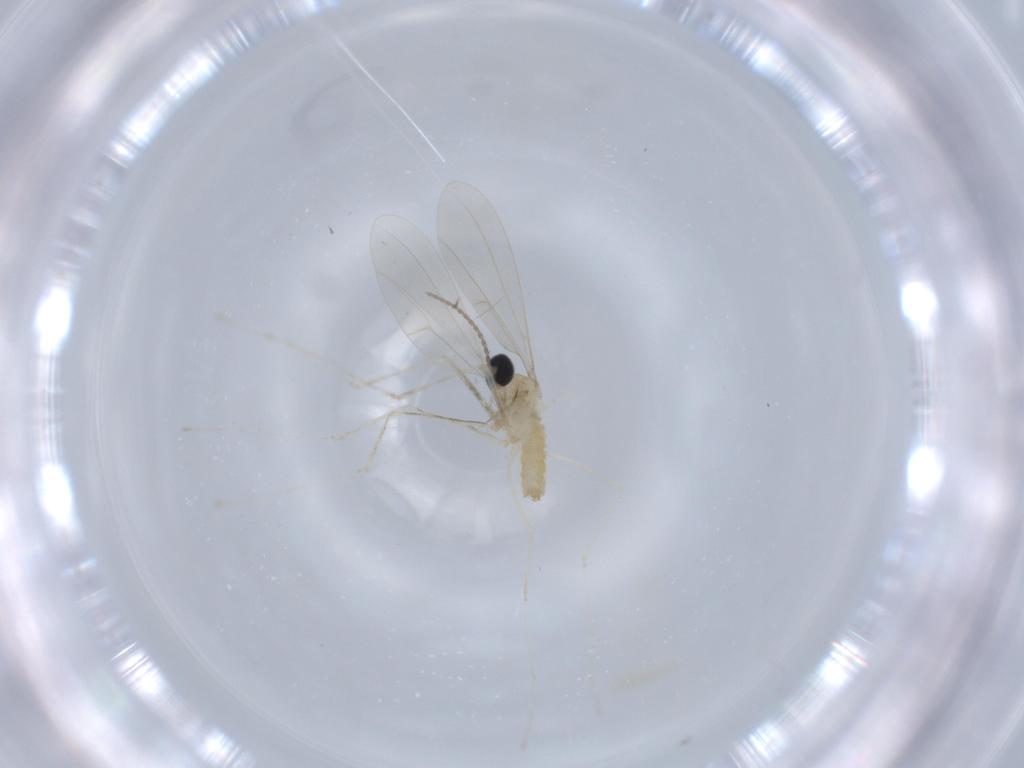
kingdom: Animalia
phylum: Arthropoda
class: Insecta
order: Diptera
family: Cecidomyiidae
